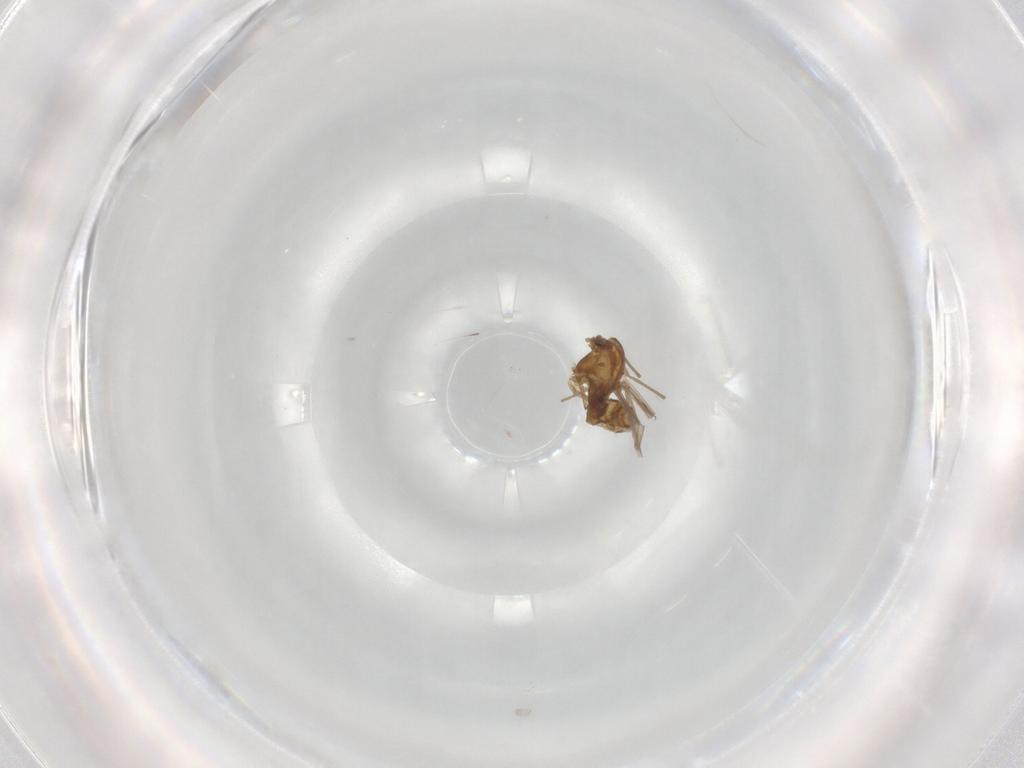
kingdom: Animalia
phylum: Arthropoda
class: Insecta
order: Diptera
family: Chironomidae
